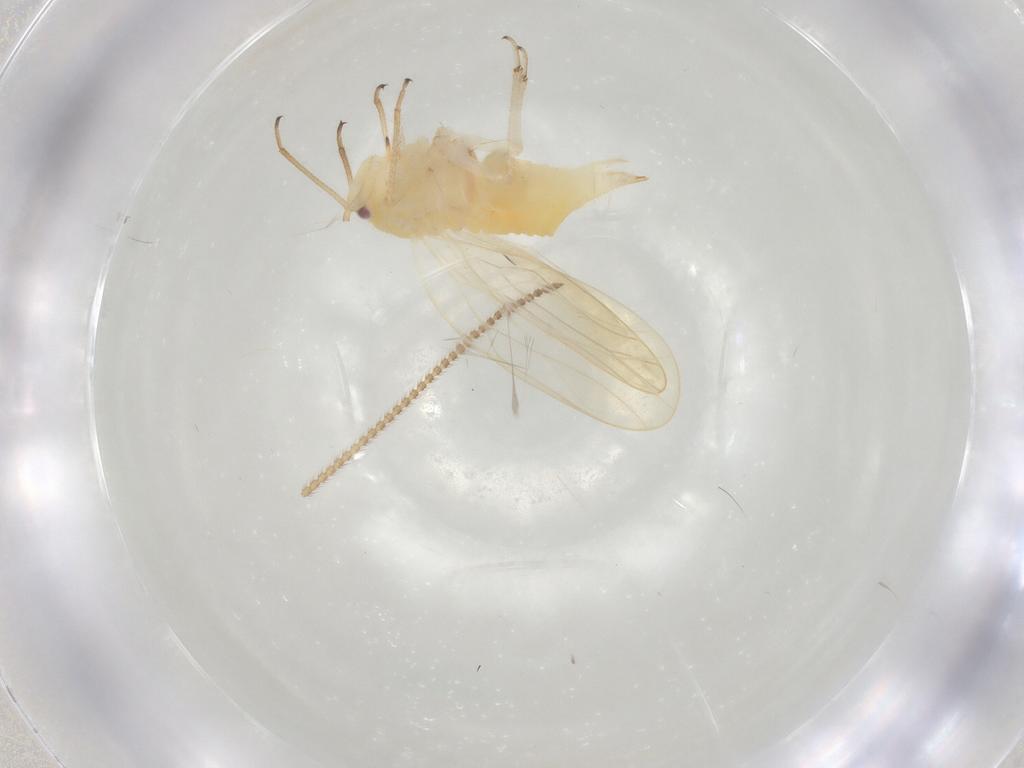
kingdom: Animalia
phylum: Arthropoda
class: Insecta
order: Neuroptera
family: Hemerobiidae
